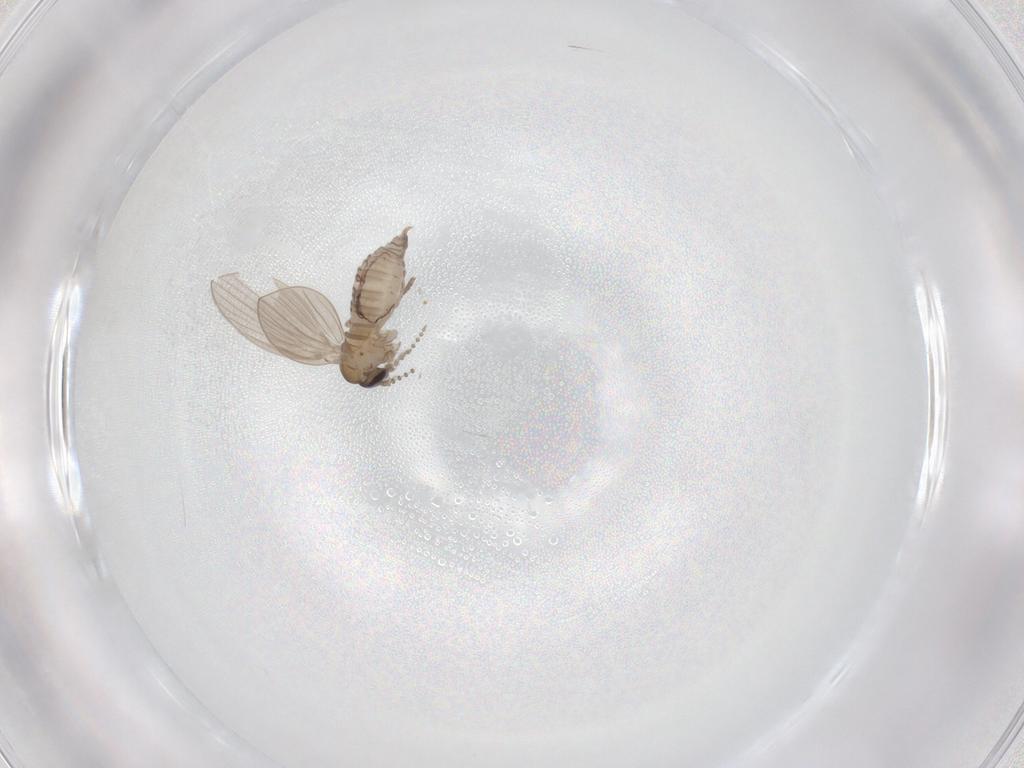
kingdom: Animalia
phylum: Arthropoda
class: Insecta
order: Diptera
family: Psychodidae
